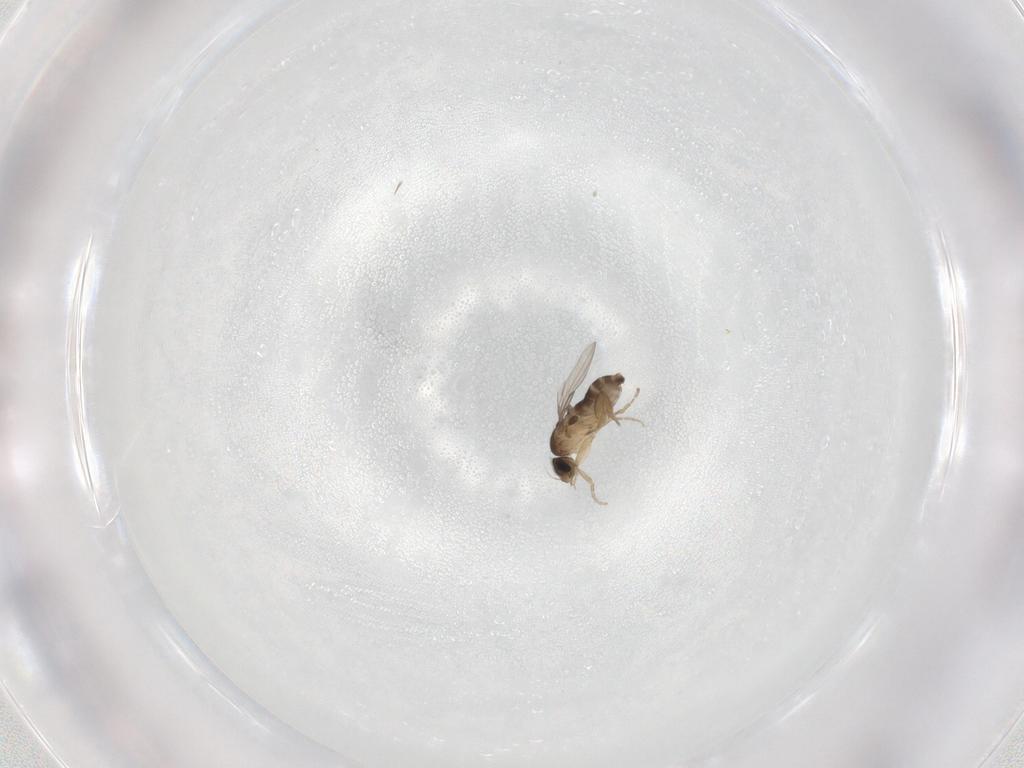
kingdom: Animalia
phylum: Arthropoda
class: Insecta
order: Diptera
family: Phoridae
